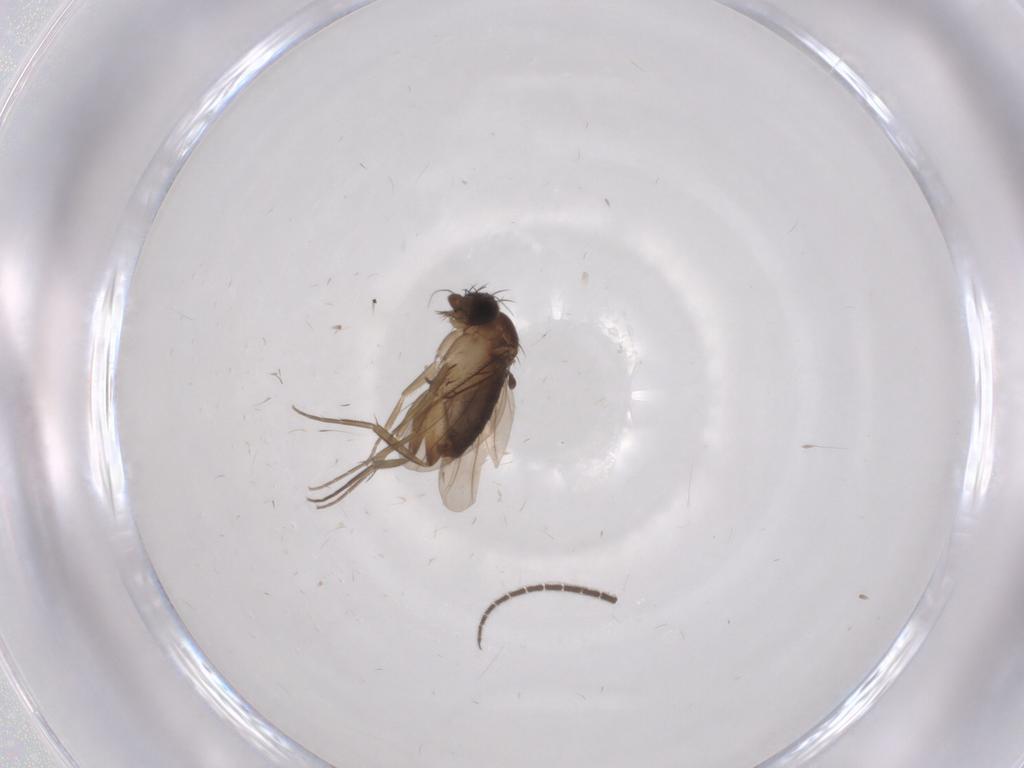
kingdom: Animalia
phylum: Arthropoda
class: Insecta
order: Diptera
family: Phoridae
